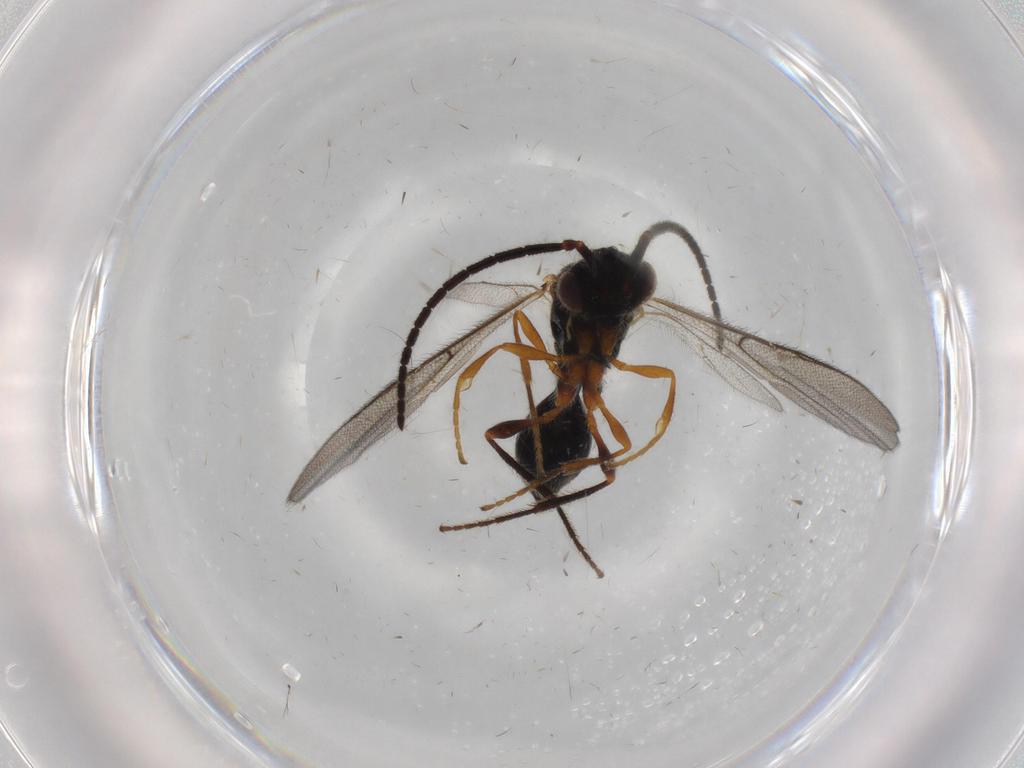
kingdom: Animalia
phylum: Arthropoda
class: Insecta
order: Hymenoptera
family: Diapriidae
